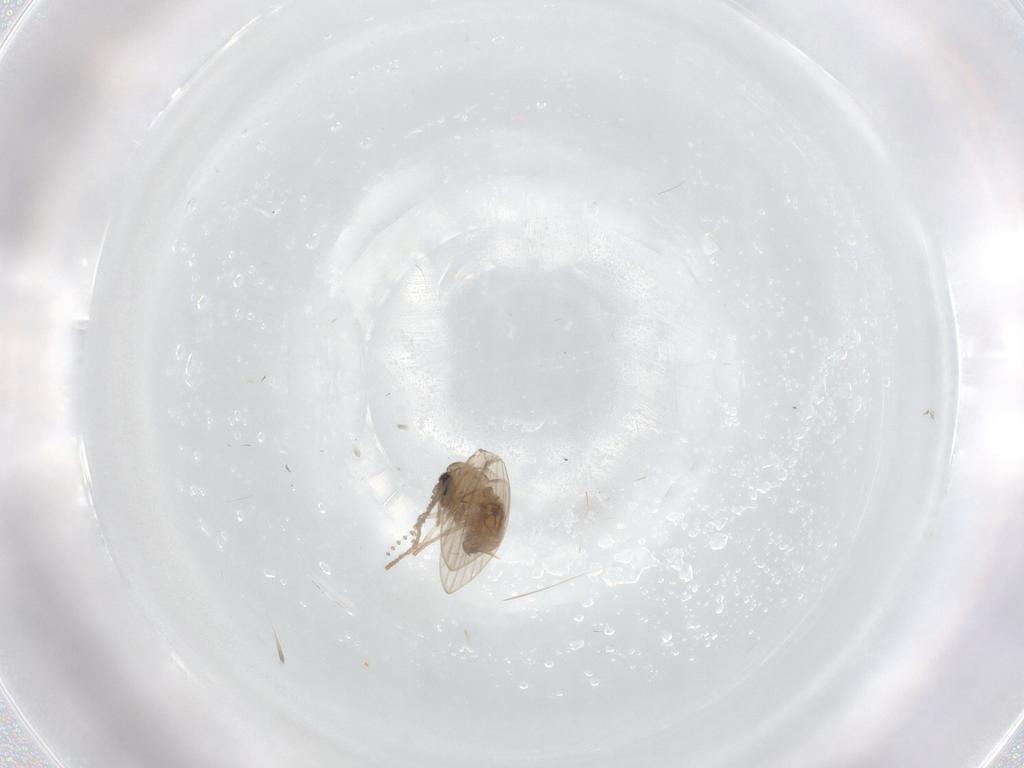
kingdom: Animalia
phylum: Arthropoda
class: Insecta
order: Diptera
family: Psychodidae
